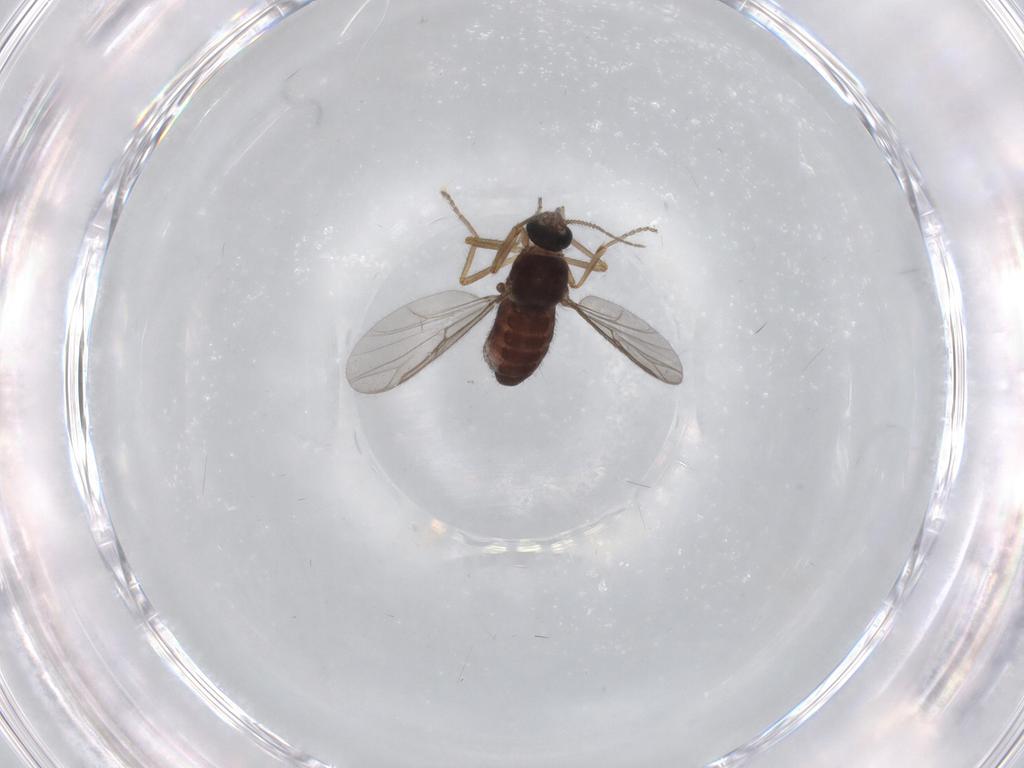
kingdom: Animalia
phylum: Arthropoda
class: Insecta
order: Diptera
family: Ceratopogonidae
